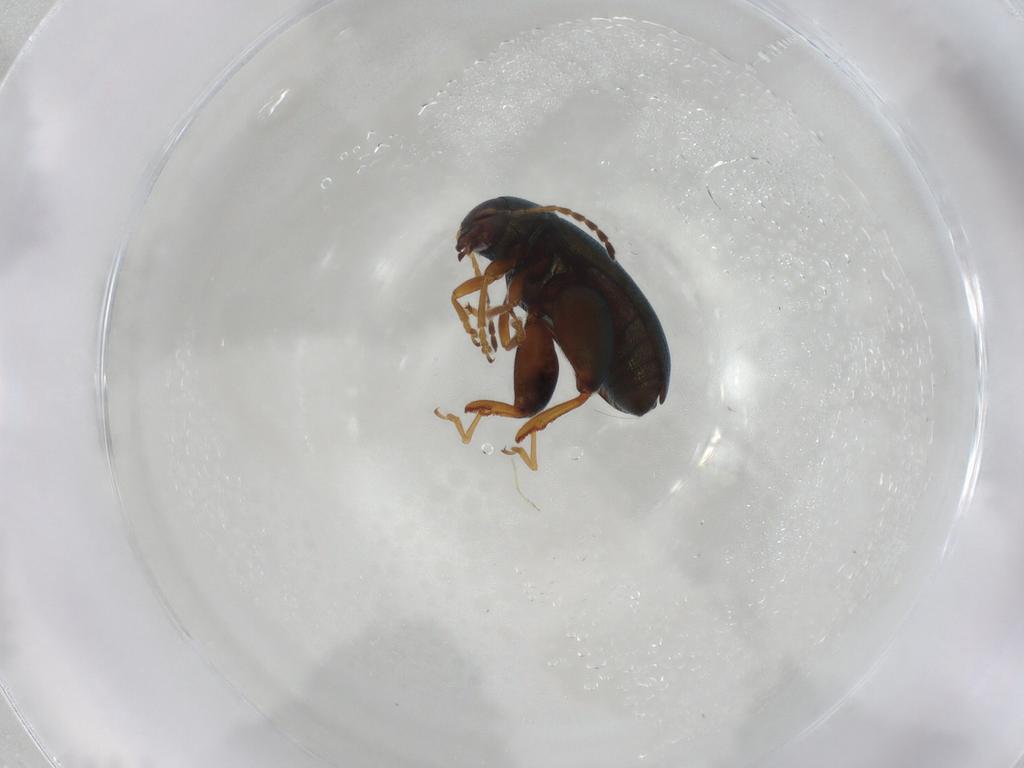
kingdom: Animalia
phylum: Arthropoda
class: Insecta
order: Coleoptera
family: Chrysomelidae
